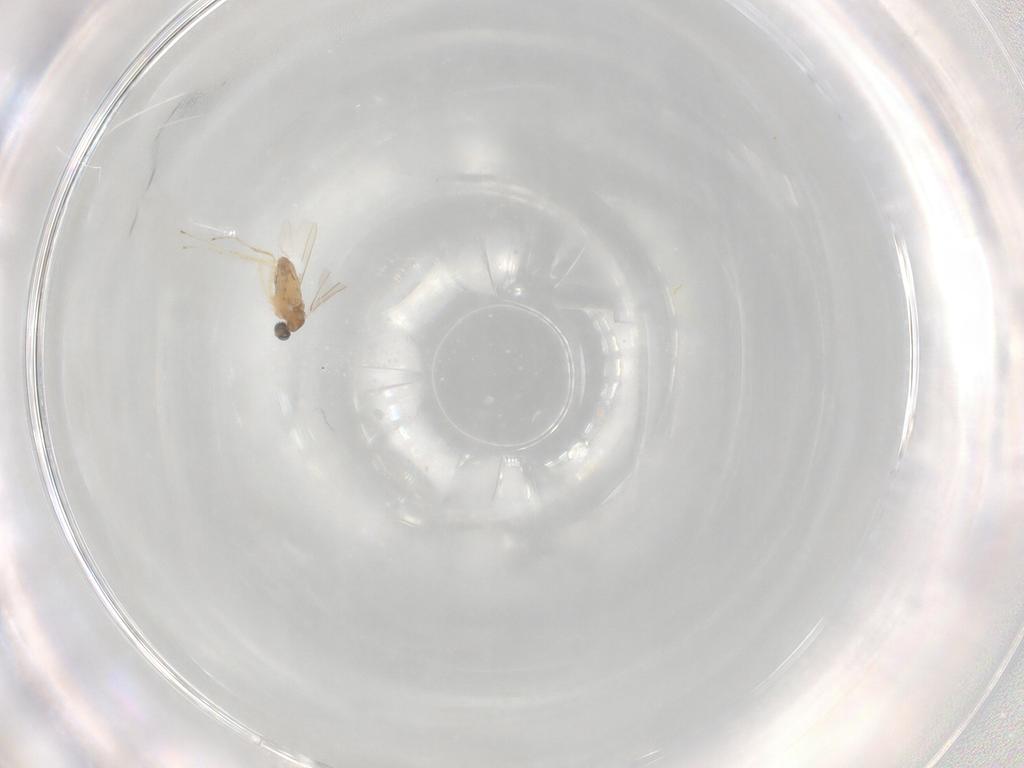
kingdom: Animalia
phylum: Arthropoda
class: Insecta
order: Diptera
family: Cecidomyiidae
